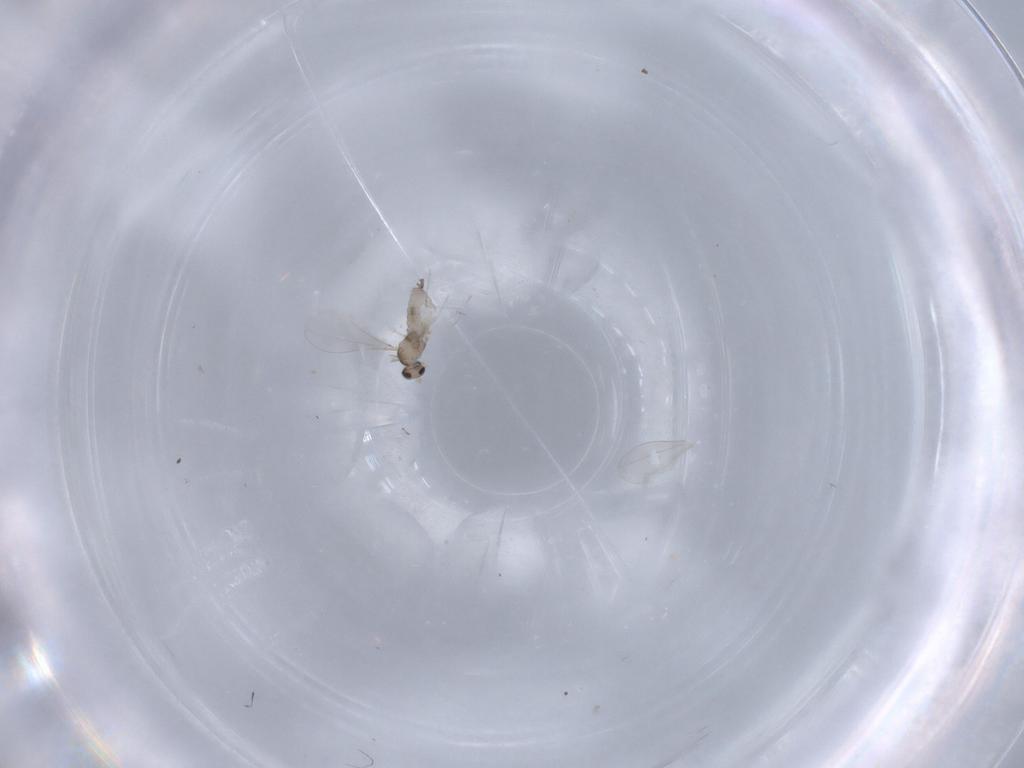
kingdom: Animalia
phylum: Arthropoda
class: Insecta
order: Diptera
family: Cecidomyiidae
